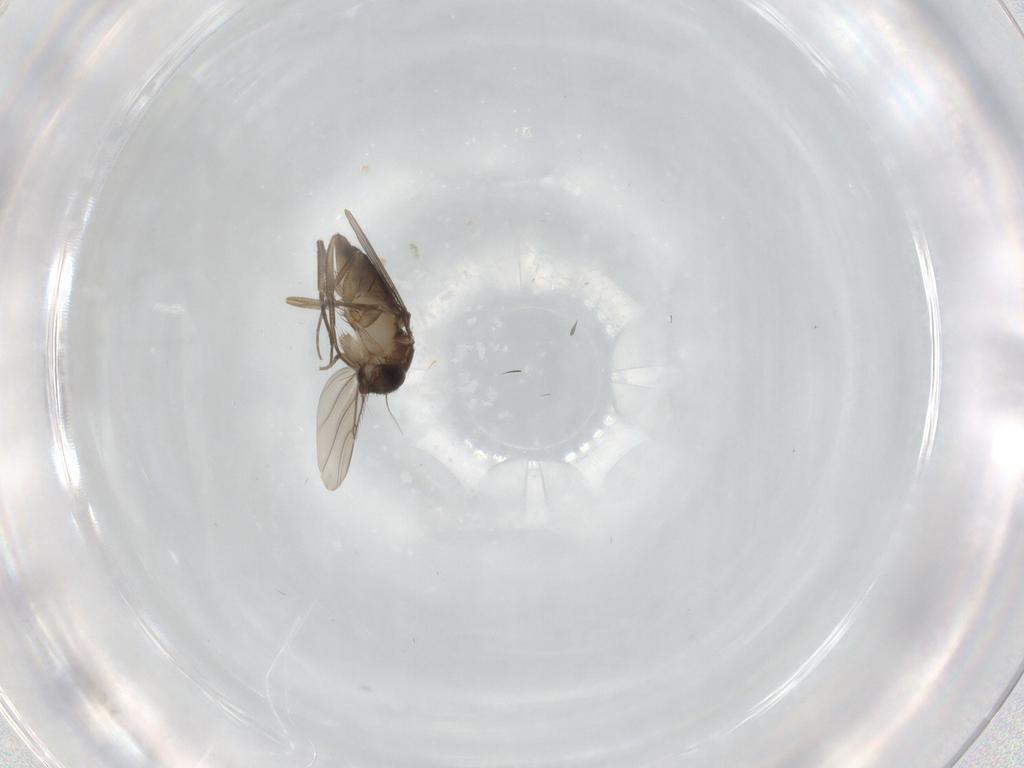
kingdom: Animalia
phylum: Arthropoda
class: Insecta
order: Diptera
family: Phoridae
